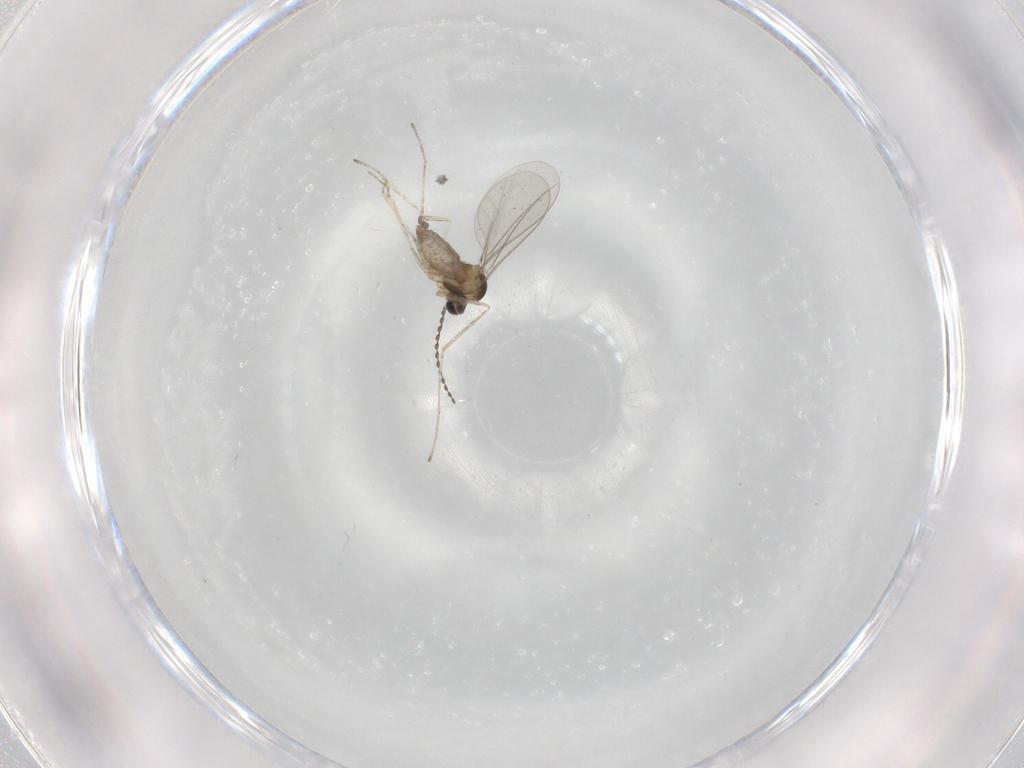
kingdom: Animalia
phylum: Arthropoda
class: Insecta
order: Diptera
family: Cecidomyiidae
